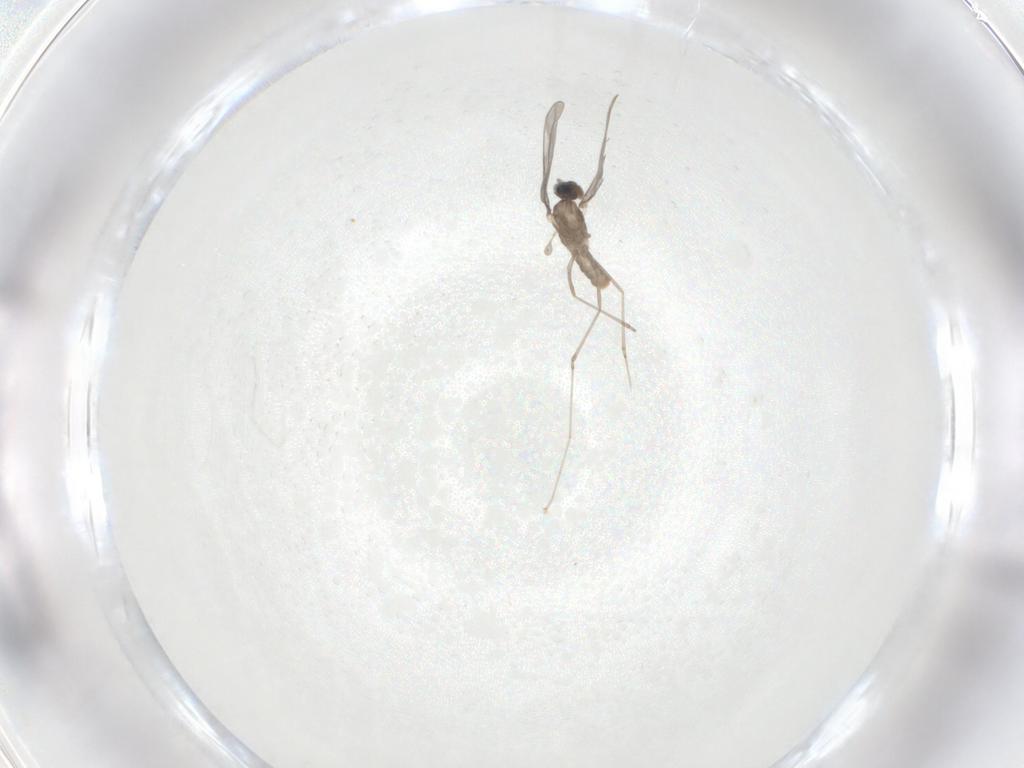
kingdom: Animalia
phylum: Arthropoda
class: Insecta
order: Diptera
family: Cecidomyiidae
